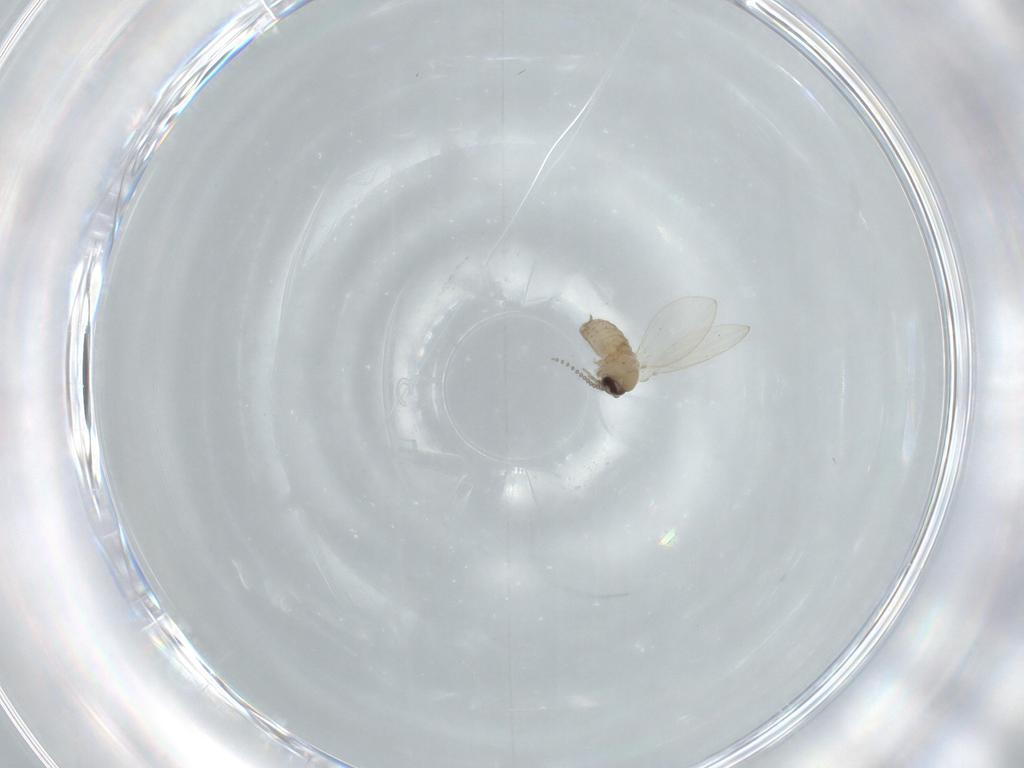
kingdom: Animalia
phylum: Arthropoda
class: Insecta
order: Diptera
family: Psychodidae
